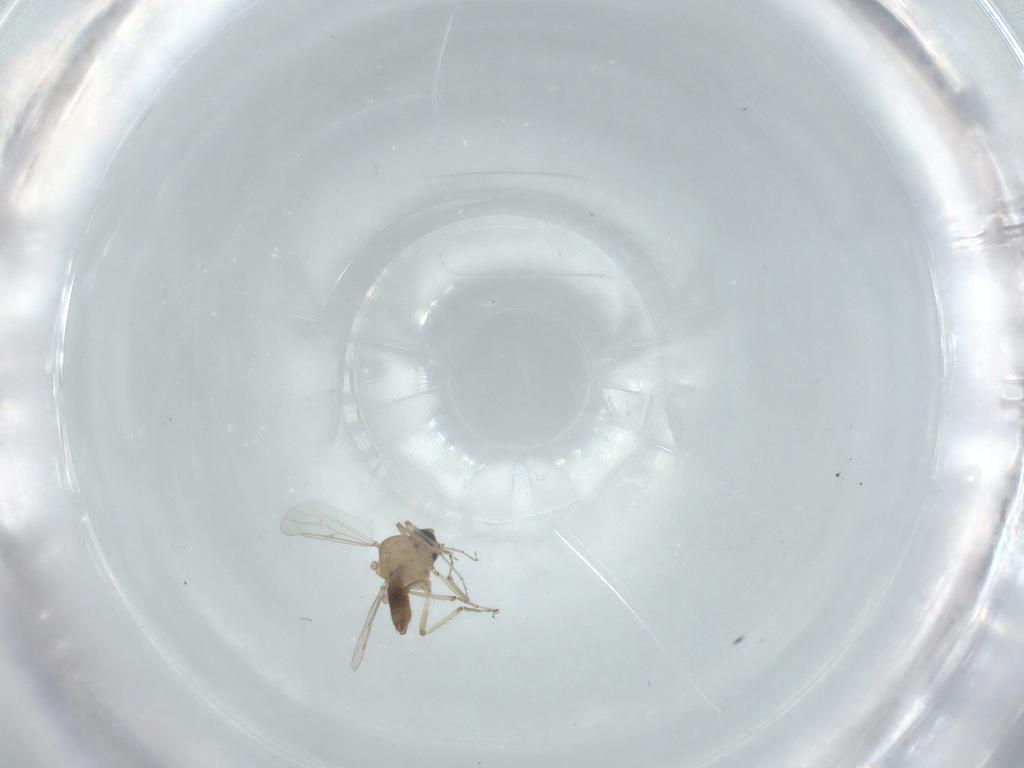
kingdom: Animalia
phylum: Arthropoda
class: Insecta
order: Diptera
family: Ceratopogonidae
